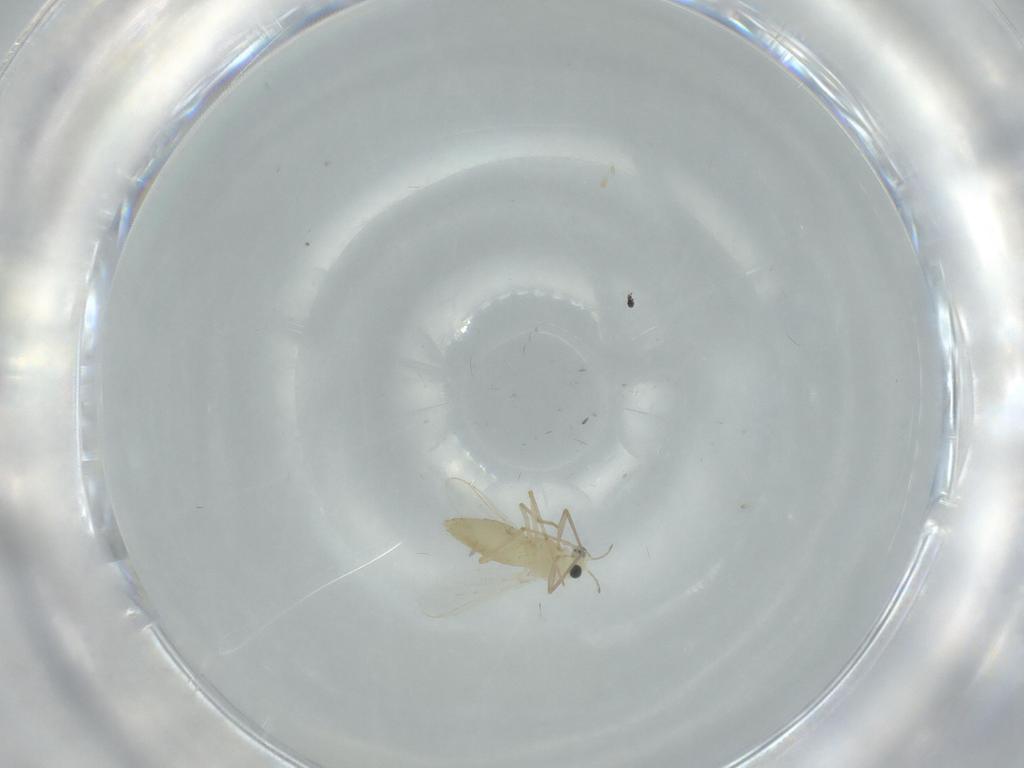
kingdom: Animalia
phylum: Arthropoda
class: Insecta
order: Diptera
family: Chironomidae
